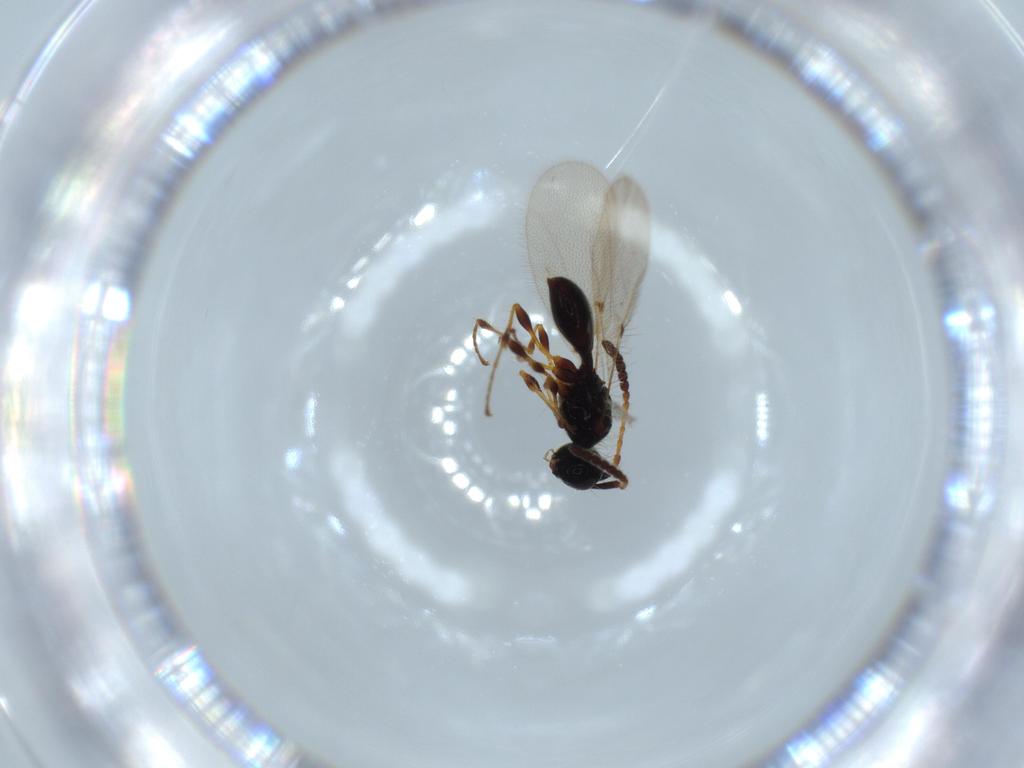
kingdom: Animalia
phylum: Arthropoda
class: Insecta
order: Hymenoptera
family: Diapriidae
